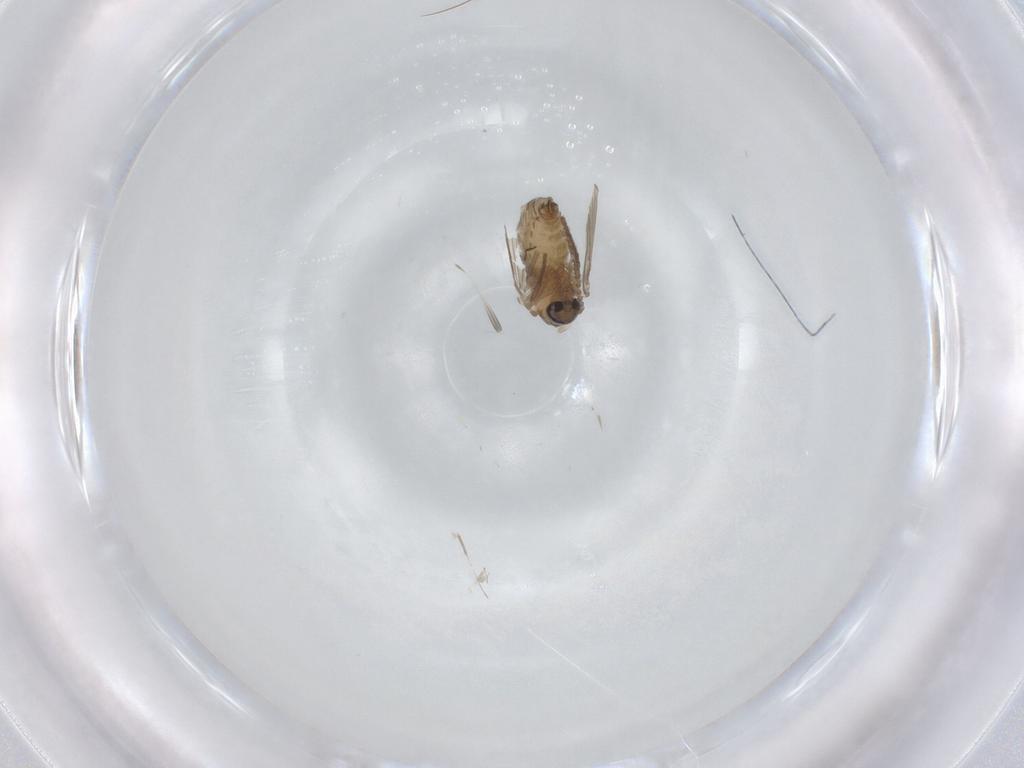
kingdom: Animalia
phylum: Arthropoda
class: Insecta
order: Diptera
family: Psychodidae
